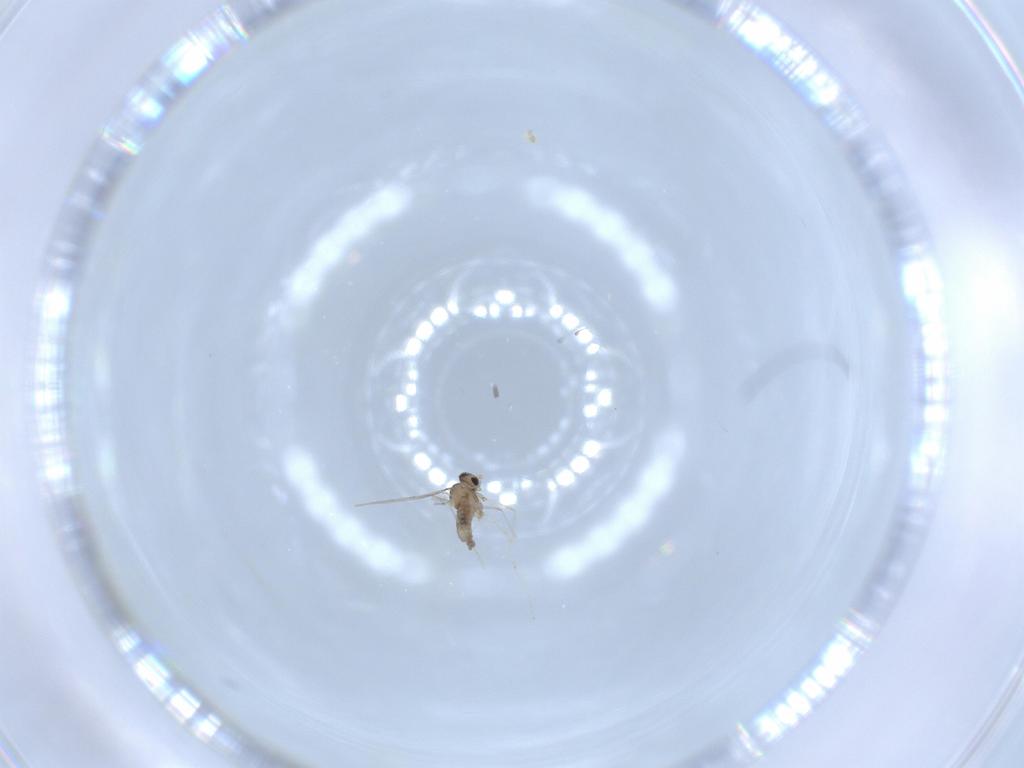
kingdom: Animalia
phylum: Arthropoda
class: Insecta
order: Diptera
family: Cecidomyiidae
